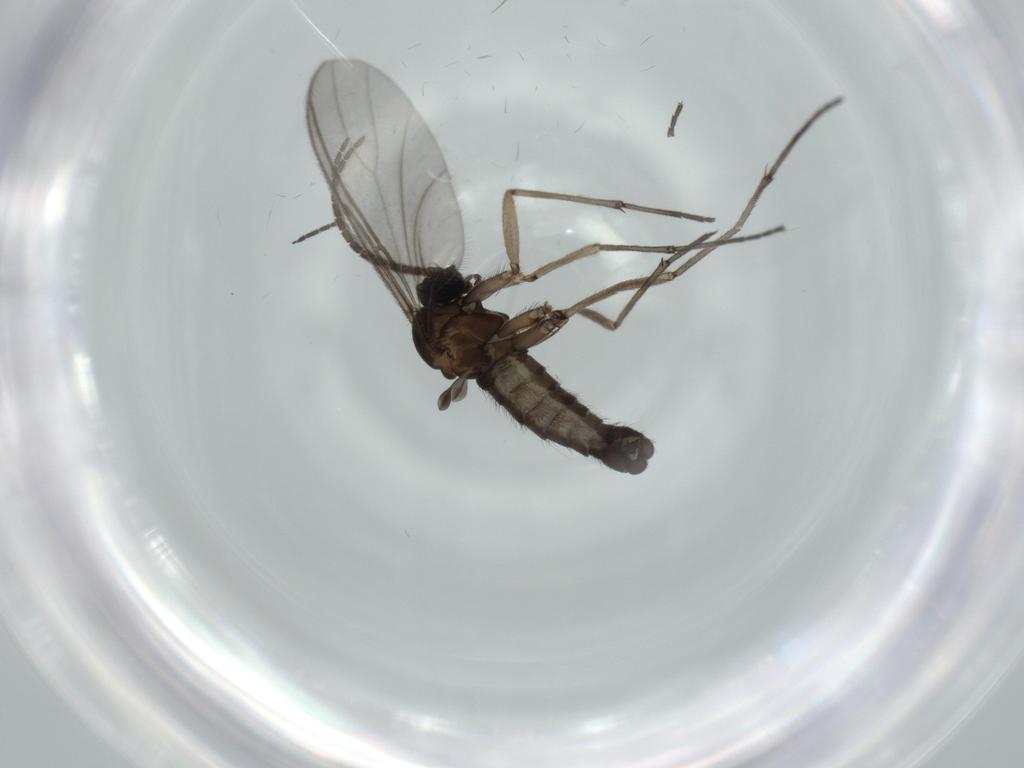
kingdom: Animalia
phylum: Arthropoda
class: Insecta
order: Diptera
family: Sciaridae
